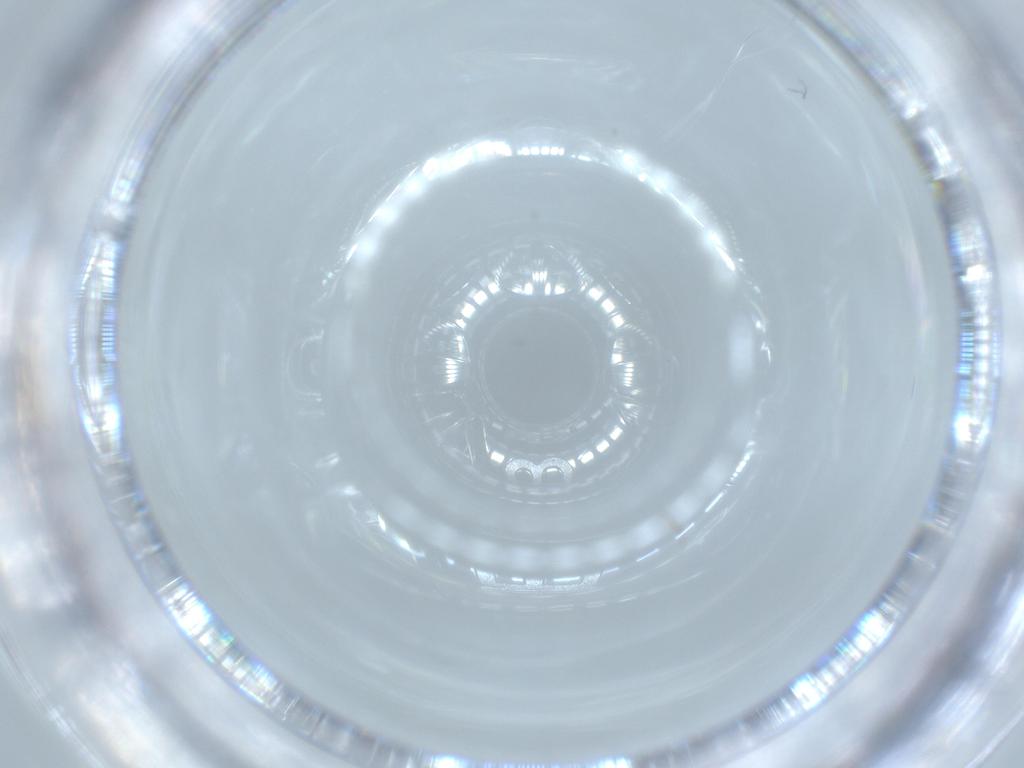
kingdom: Animalia
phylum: Arthropoda
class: Insecta
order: Diptera
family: Chironomidae
